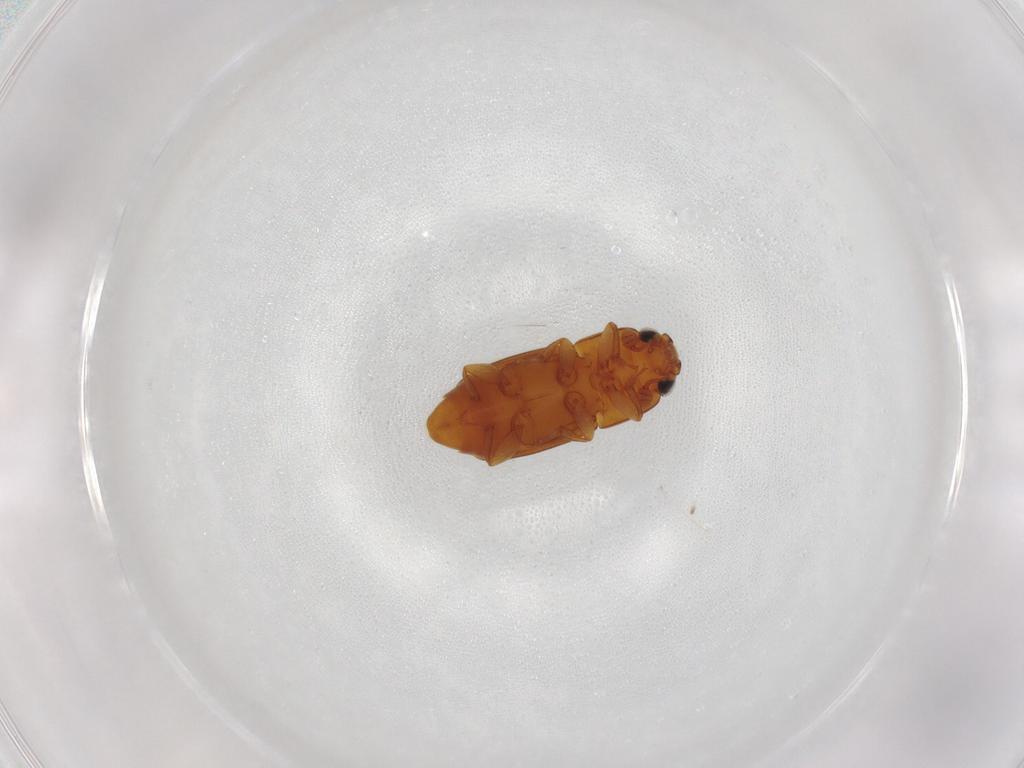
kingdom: Animalia
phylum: Arthropoda
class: Insecta
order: Coleoptera
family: Nitidulidae
